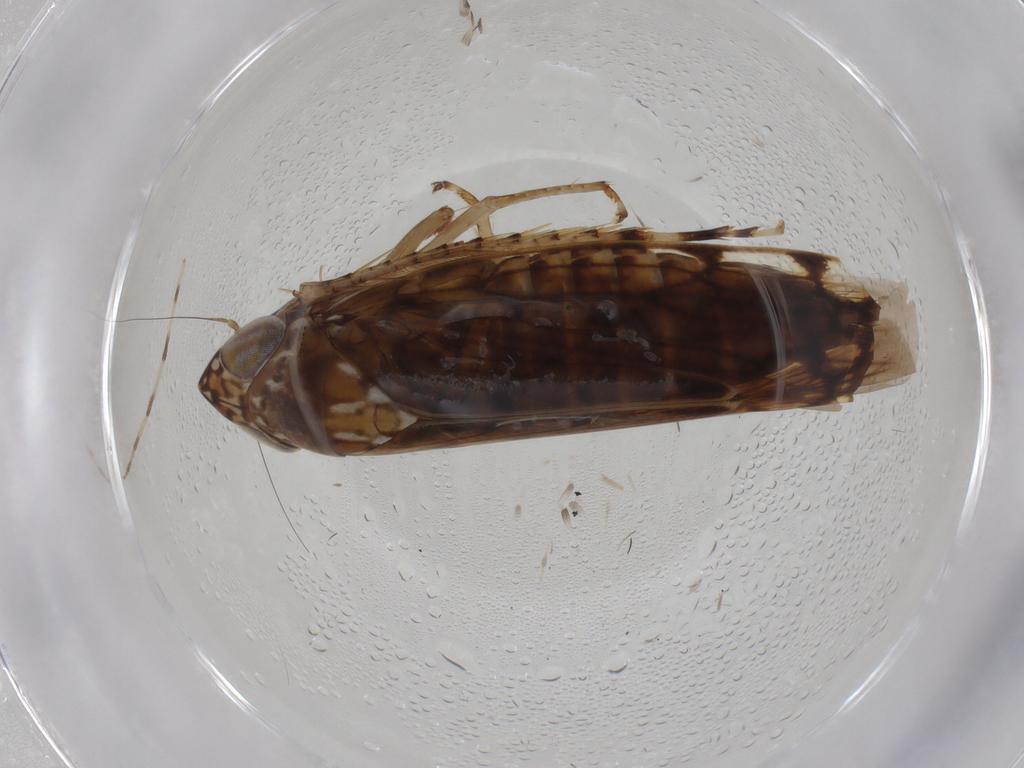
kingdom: Animalia
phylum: Arthropoda
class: Insecta
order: Hemiptera
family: Cicadellidae
